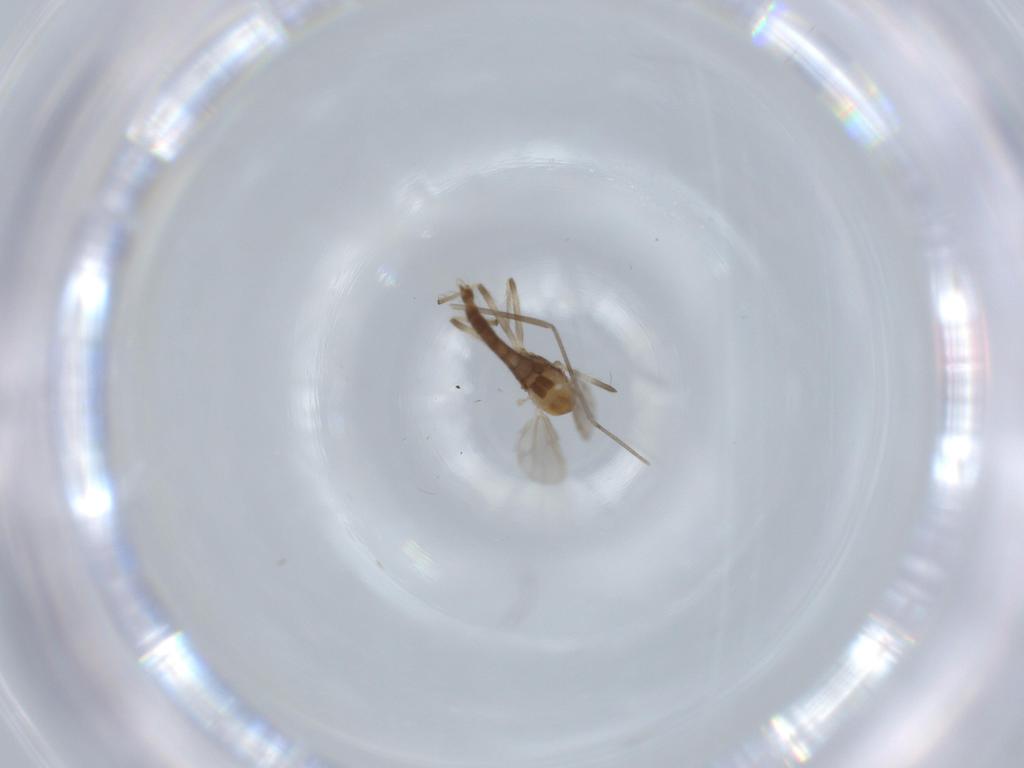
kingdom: Animalia
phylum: Arthropoda
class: Insecta
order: Diptera
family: Chironomidae
